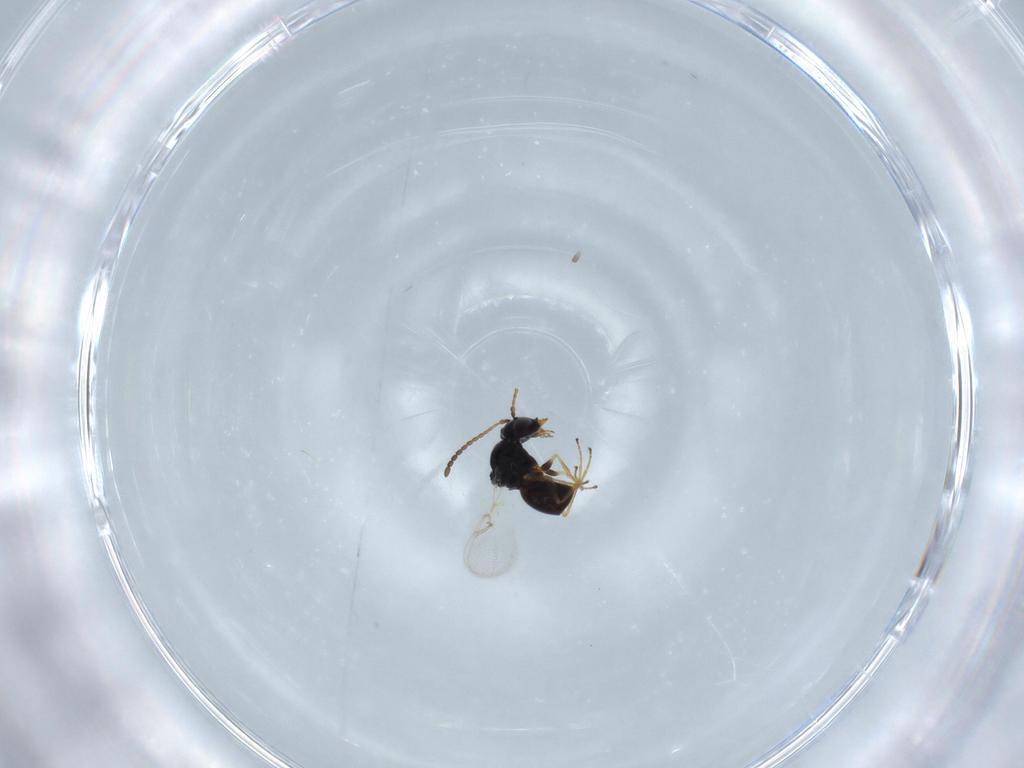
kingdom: Animalia
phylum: Arthropoda
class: Insecta
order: Hymenoptera
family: Figitidae
